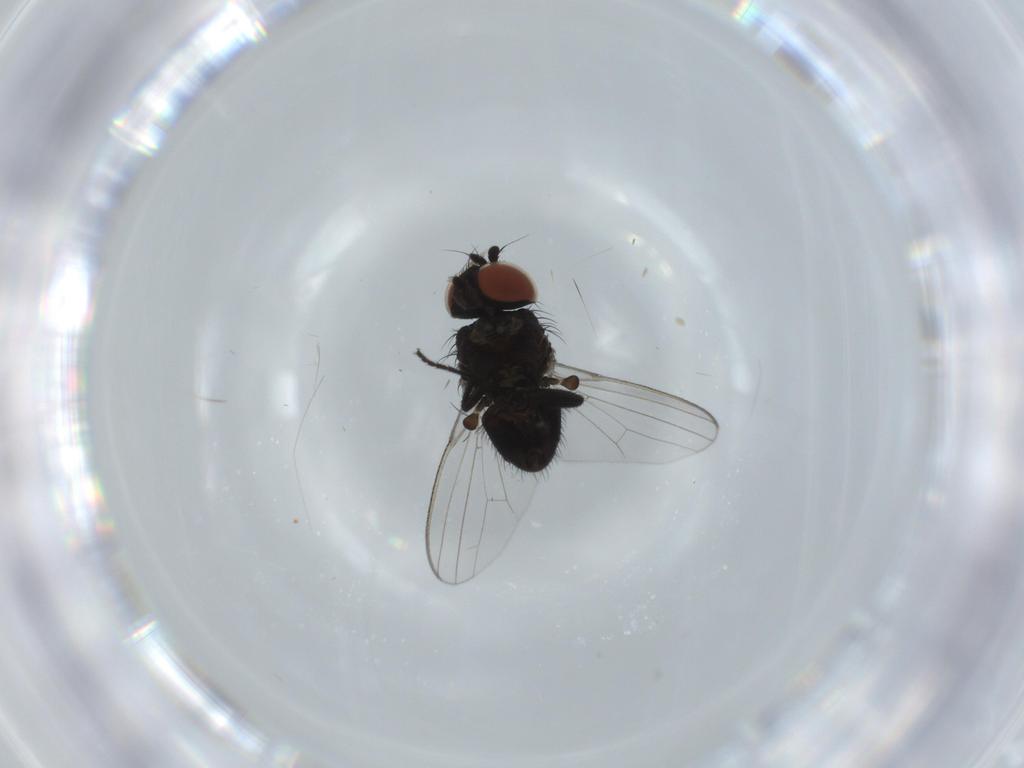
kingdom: Animalia
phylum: Arthropoda
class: Insecta
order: Diptera
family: Milichiidae
